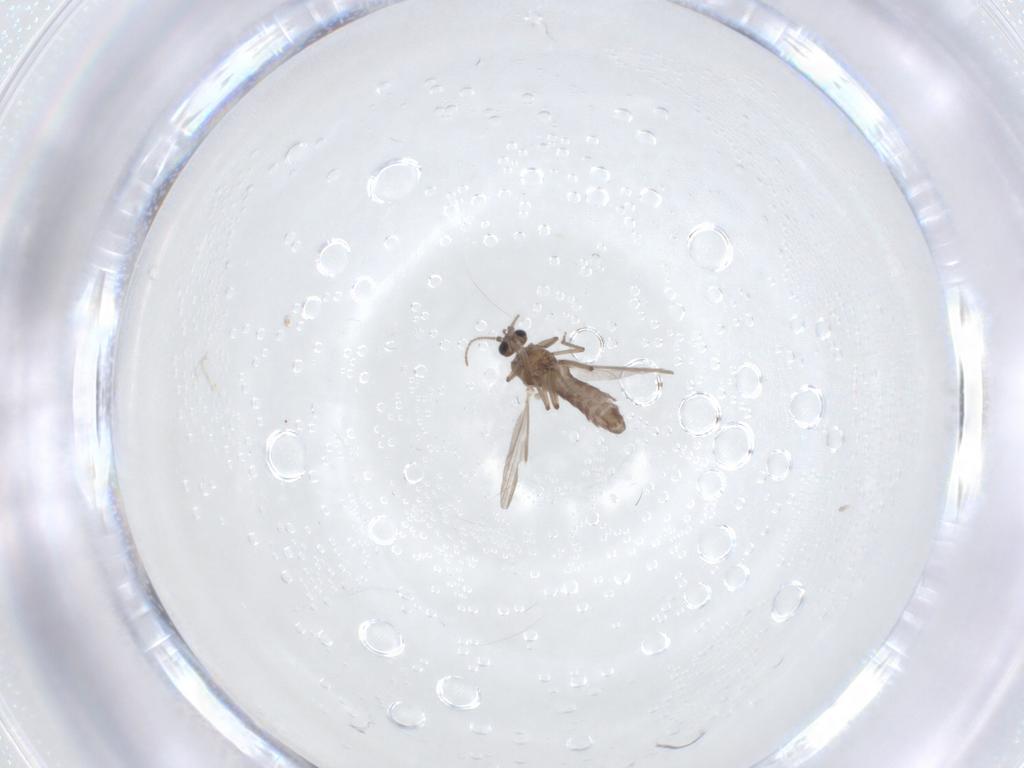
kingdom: Animalia
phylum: Arthropoda
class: Insecta
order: Diptera
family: Ceratopogonidae
